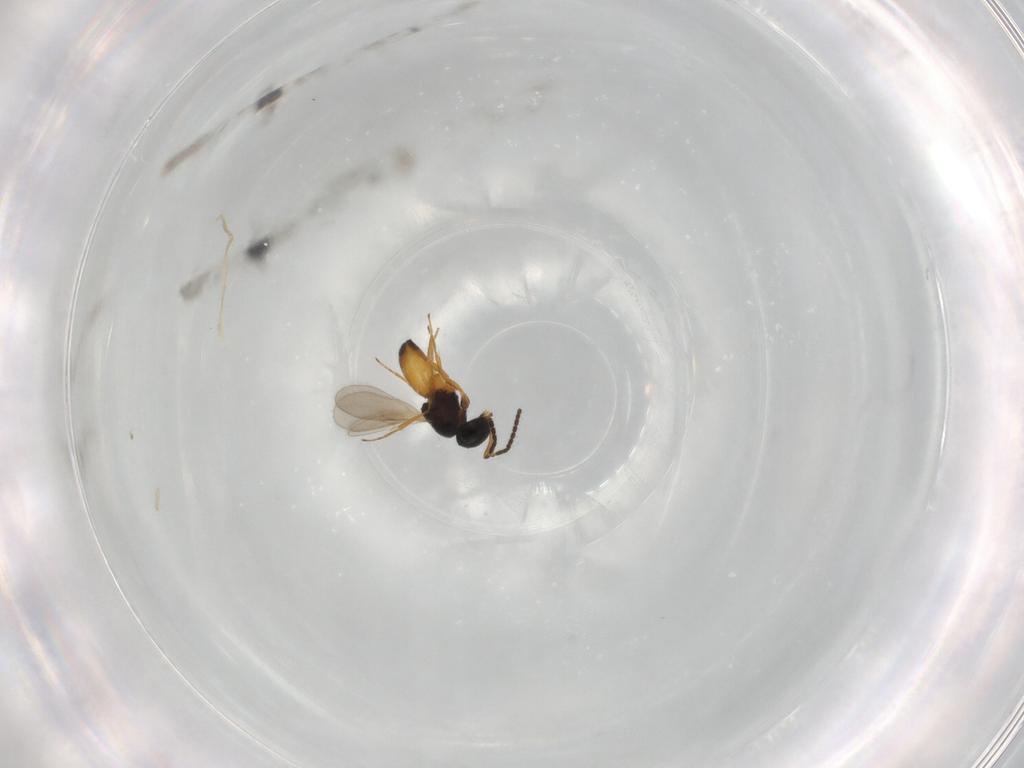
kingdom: Animalia
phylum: Arthropoda
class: Insecta
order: Hymenoptera
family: Scelionidae
